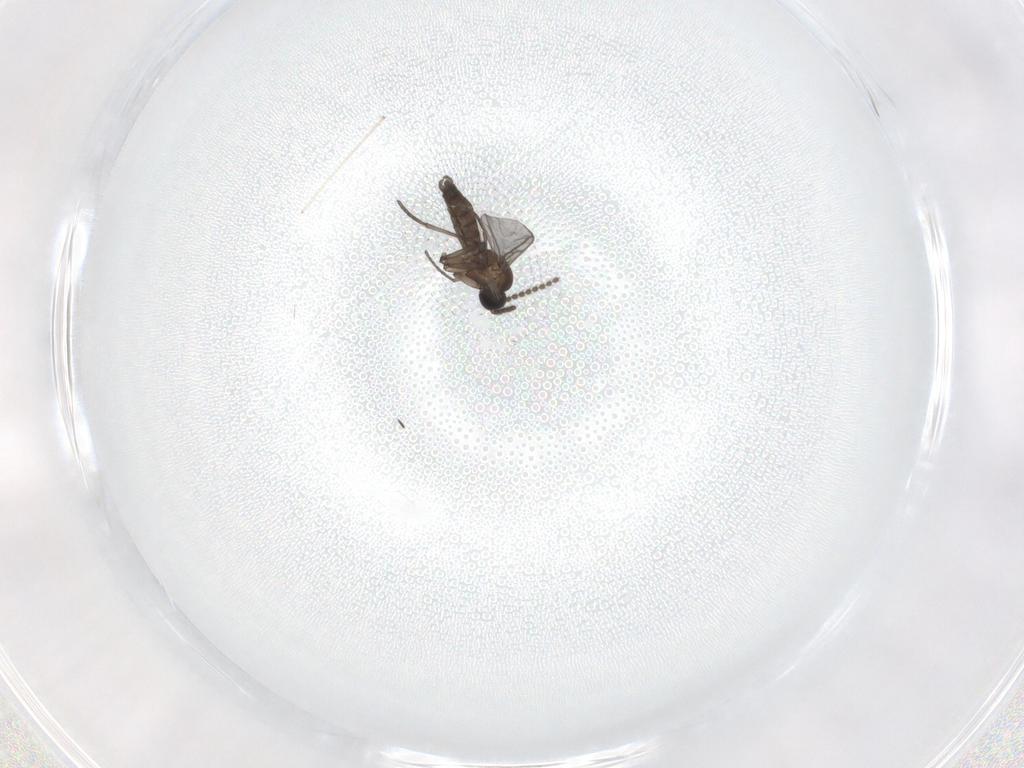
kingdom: Animalia
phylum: Arthropoda
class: Insecta
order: Diptera
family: Cecidomyiidae
